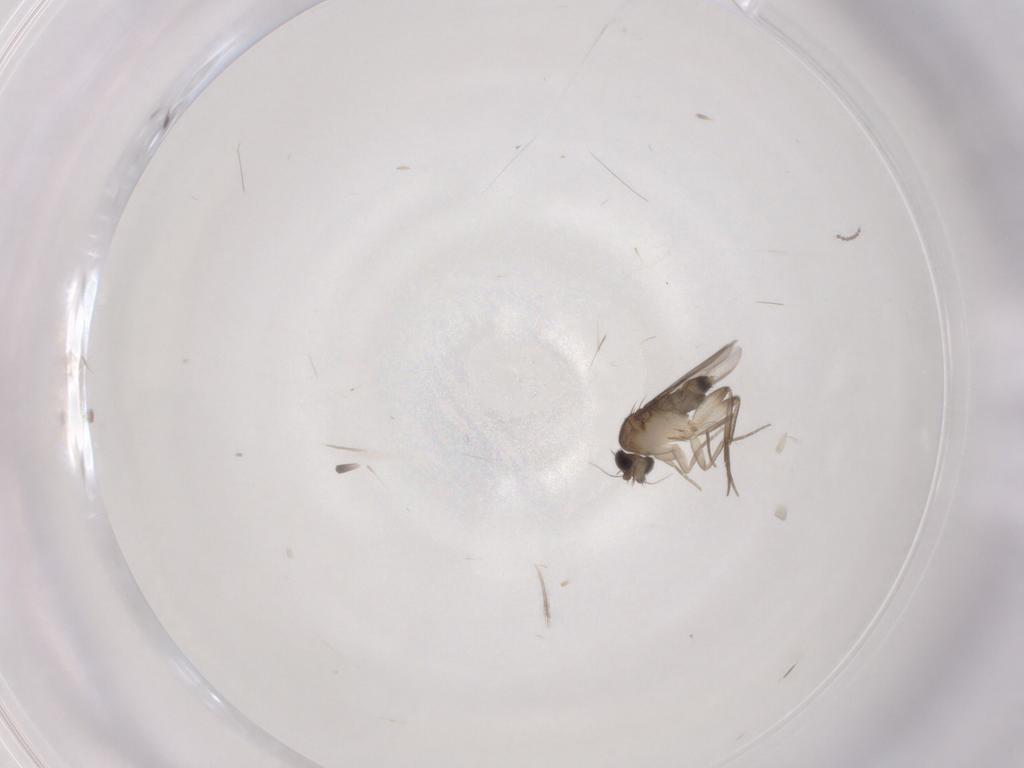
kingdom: Animalia
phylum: Arthropoda
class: Insecta
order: Diptera
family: Phoridae
